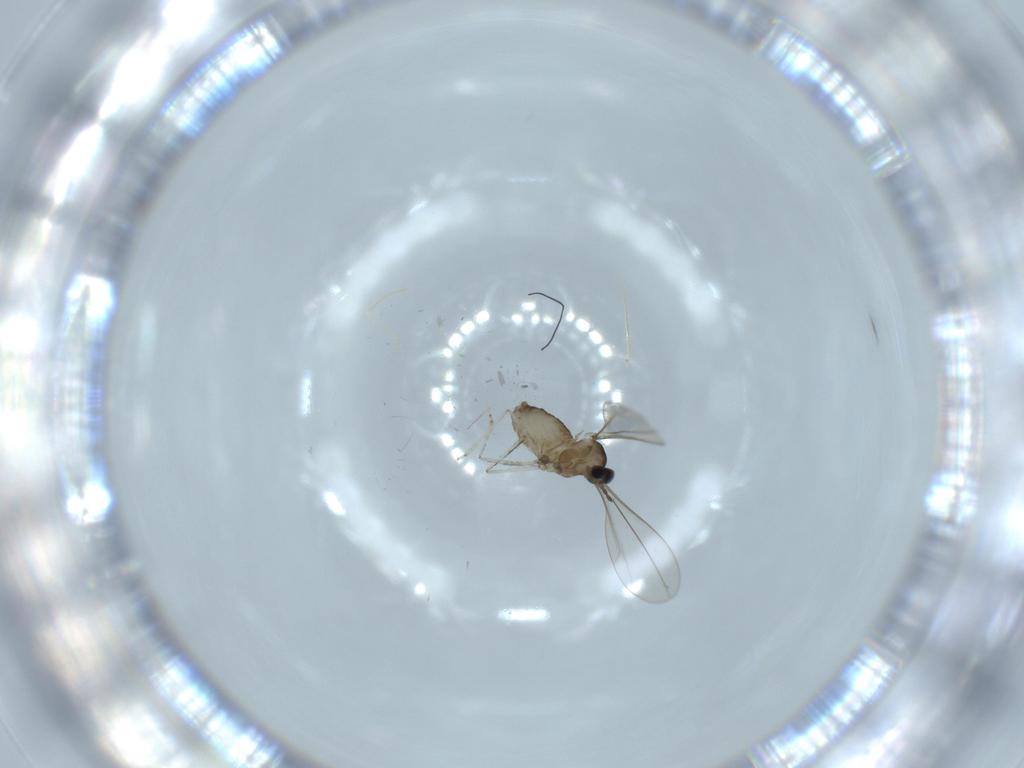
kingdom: Animalia
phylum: Arthropoda
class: Insecta
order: Diptera
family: Cecidomyiidae
